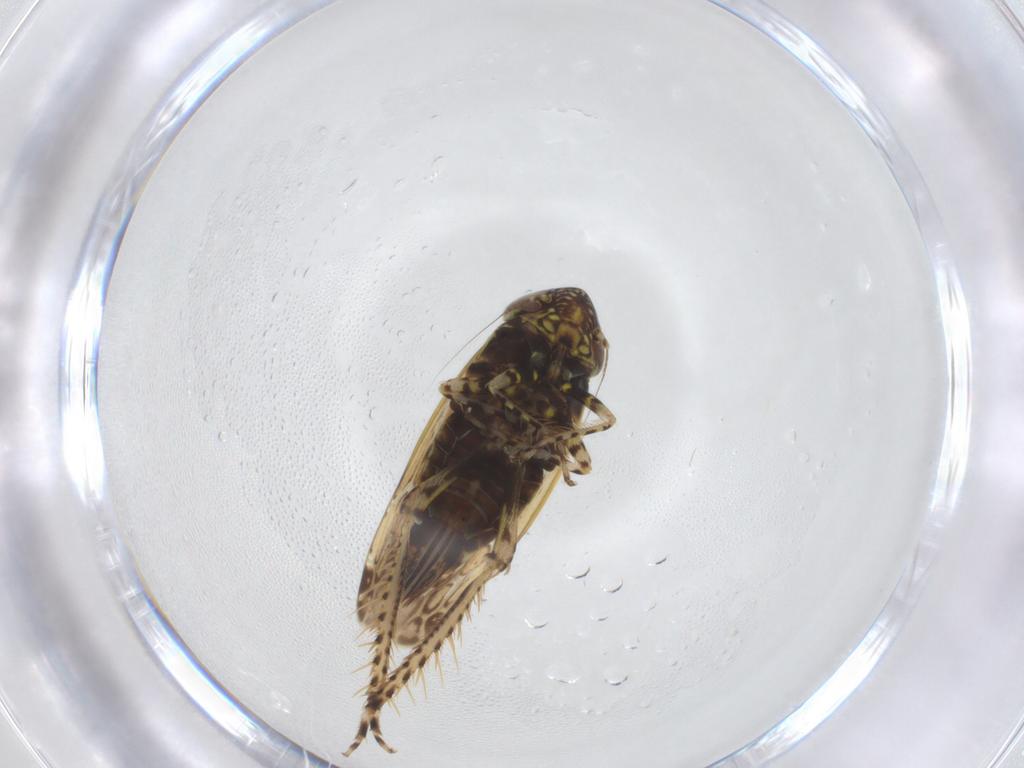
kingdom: Animalia
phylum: Arthropoda
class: Insecta
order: Hemiptera
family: Cicadellidae
